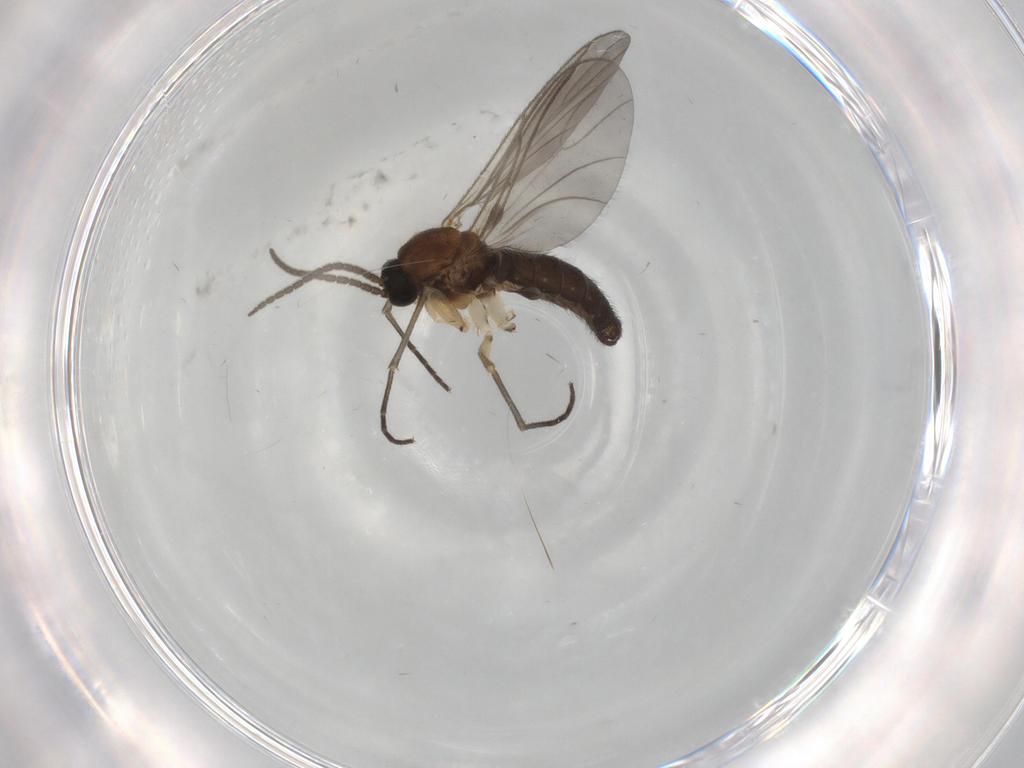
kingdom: Animalia
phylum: Arthropoda
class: Insecta
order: Diptera
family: Sciaridae
